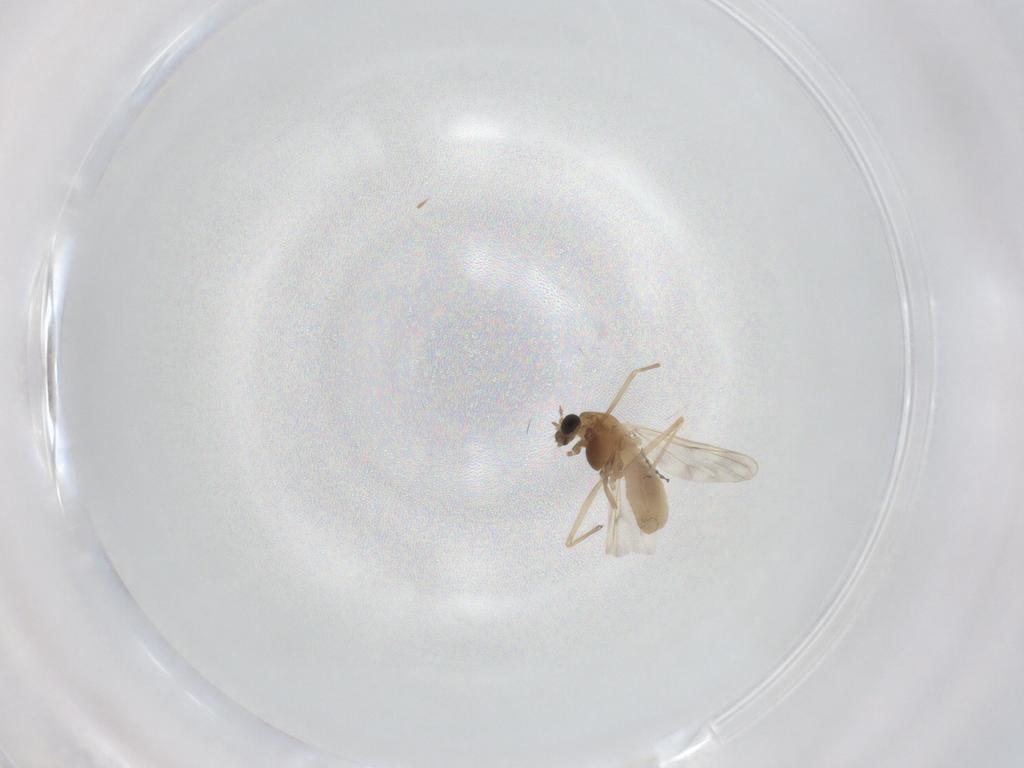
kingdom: Animalia
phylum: Arthropoda
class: Insecta
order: Diptera
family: Chironomidae
